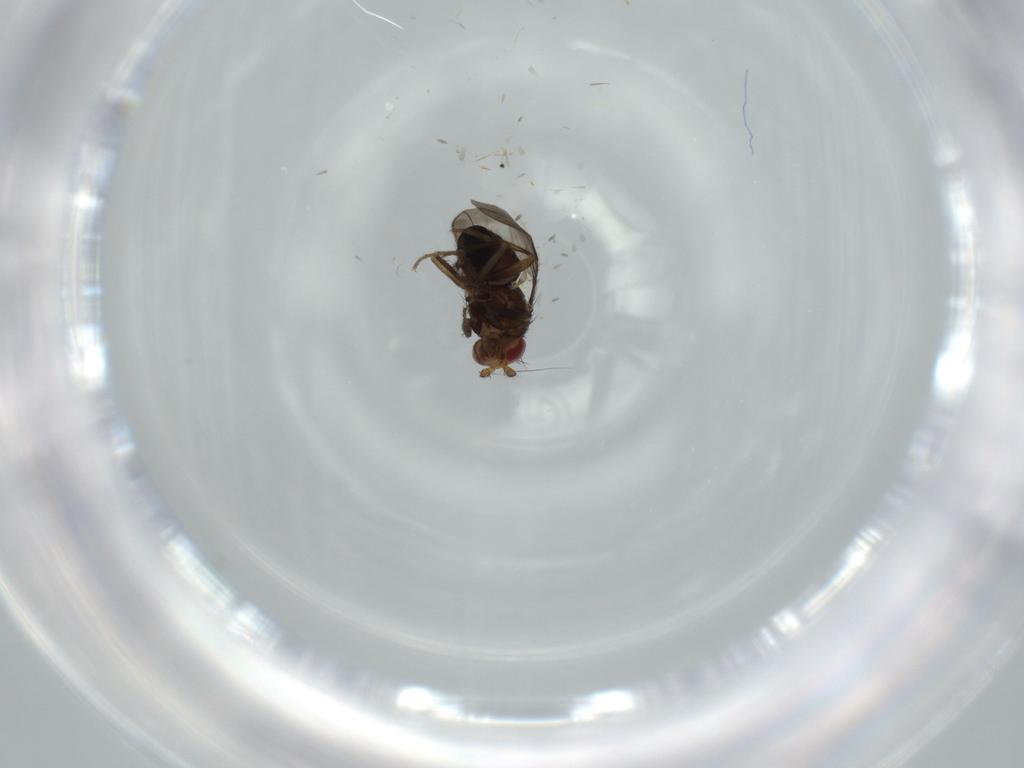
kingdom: Animalia
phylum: Arthropoda
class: Insecta
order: Diptera
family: Sphaeroceridae
